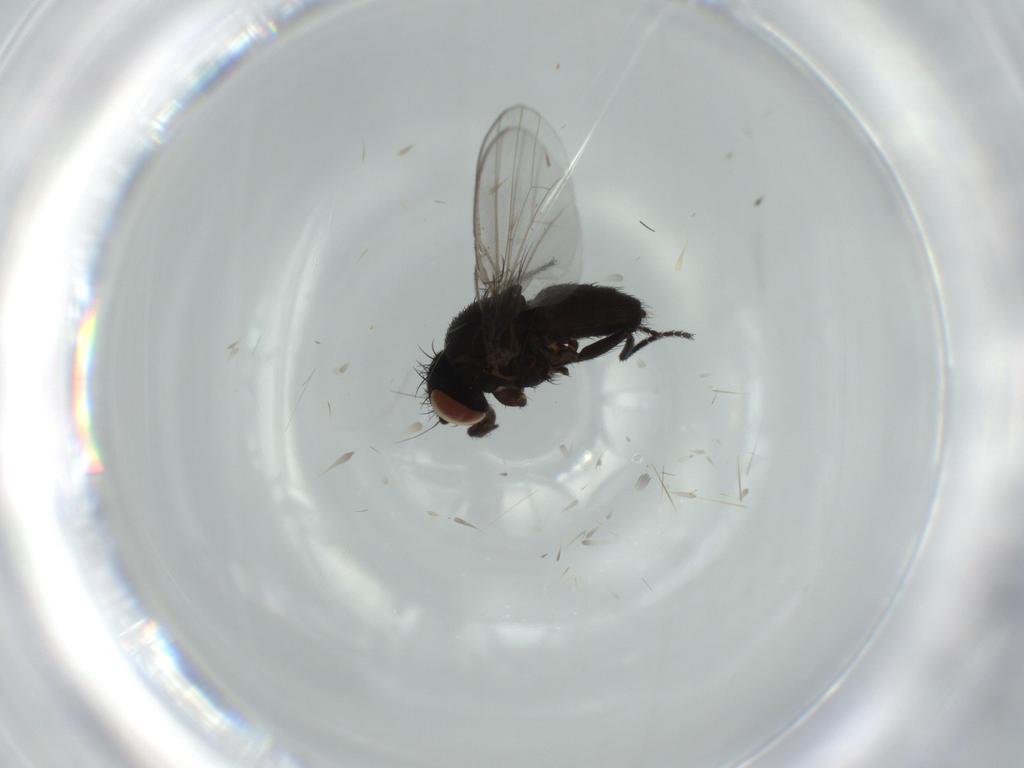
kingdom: Animalia
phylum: Arthropoda
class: Insecta
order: Diptera
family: Milichiidae
